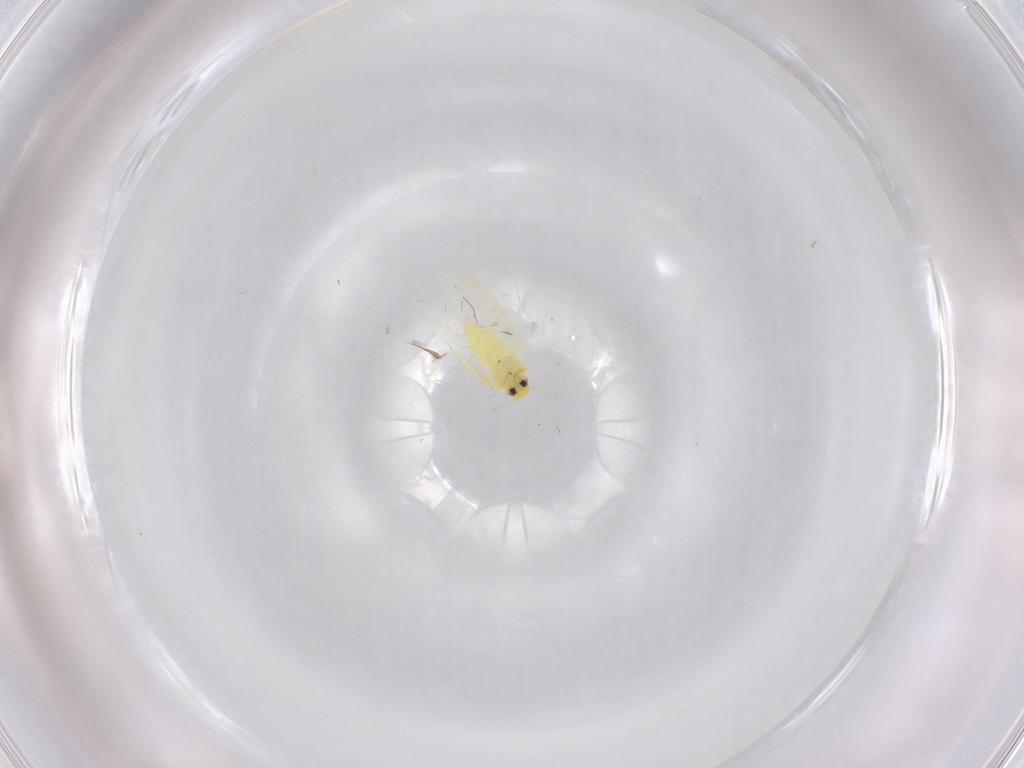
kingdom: Animalia
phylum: Arthropoda
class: Insecta
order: Hemiptera
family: Aleyrodidae
